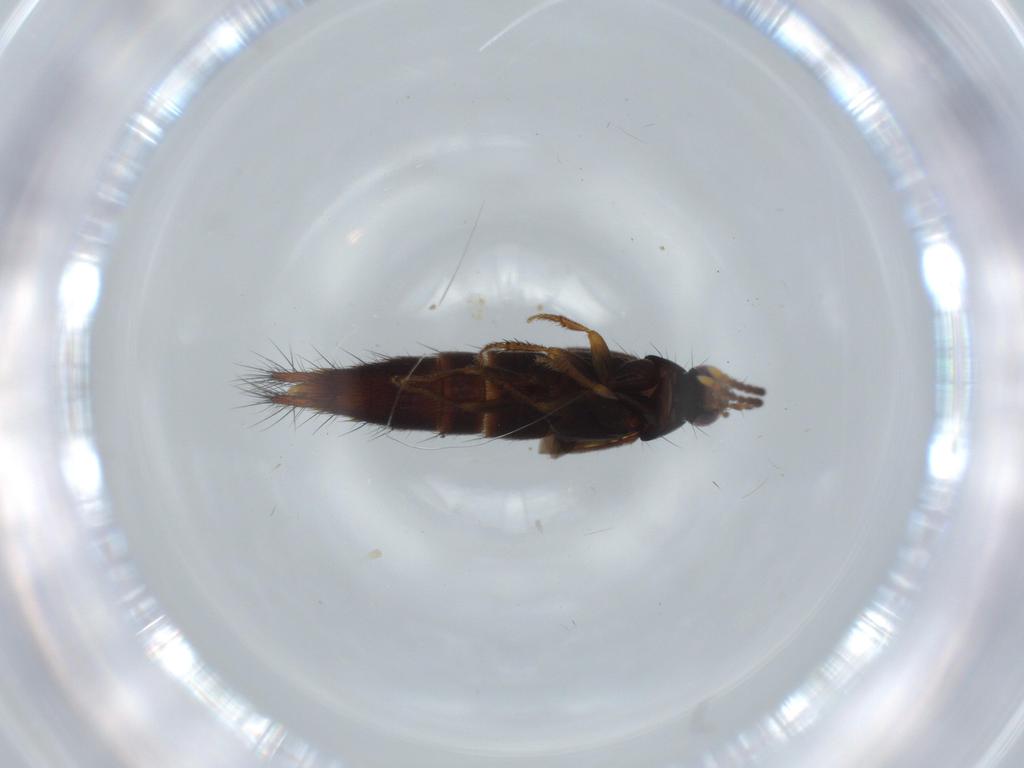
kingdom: Animalia
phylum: Arthropoda
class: Insecta
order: Coleoptera
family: Staphylinidae
